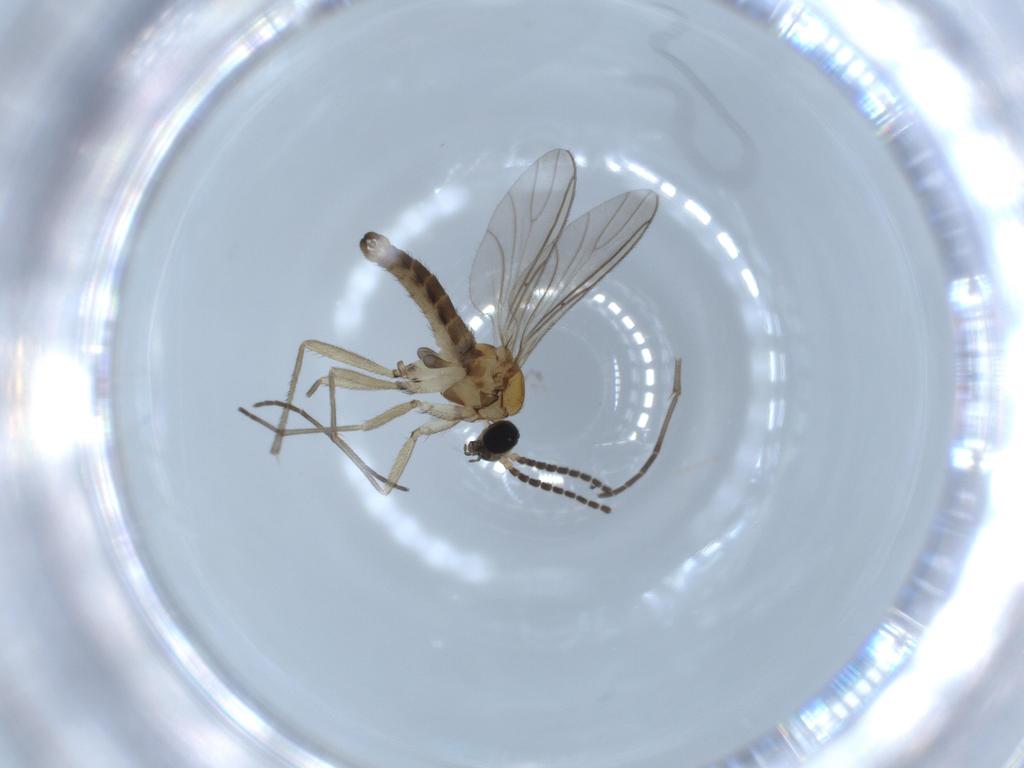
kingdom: Animalia
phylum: Arthropoda
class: Insecta
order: Diptera
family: Sciaridae
